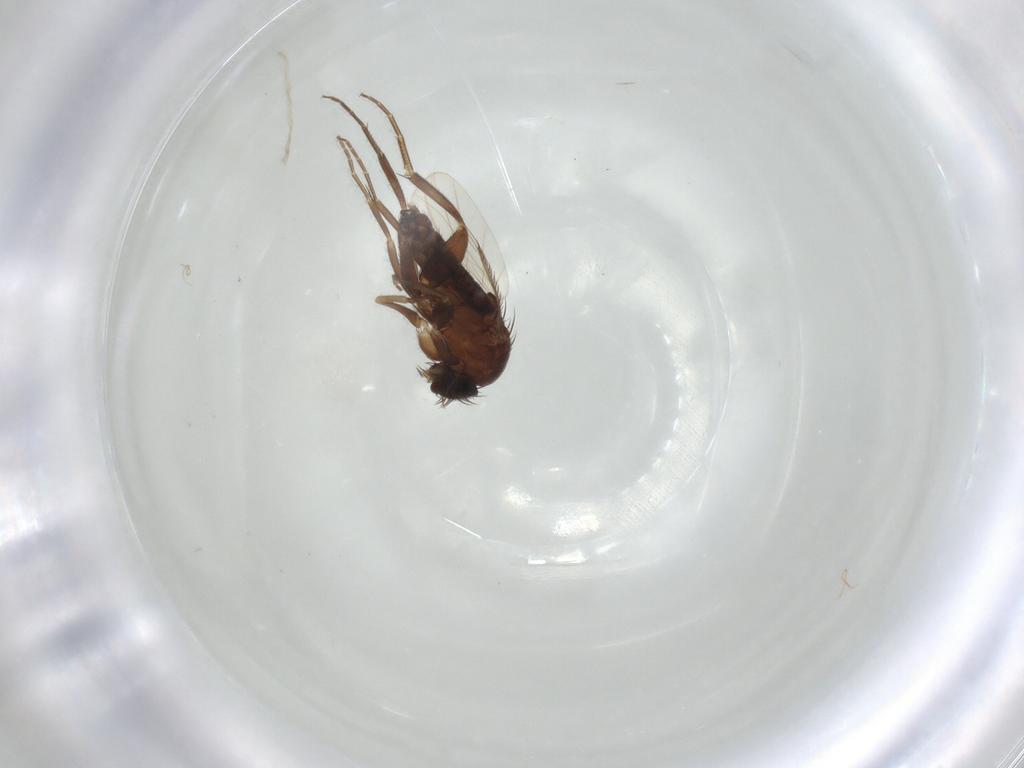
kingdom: Animalia
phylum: Arthropoda
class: Insecta
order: Diptera
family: Phoridae
